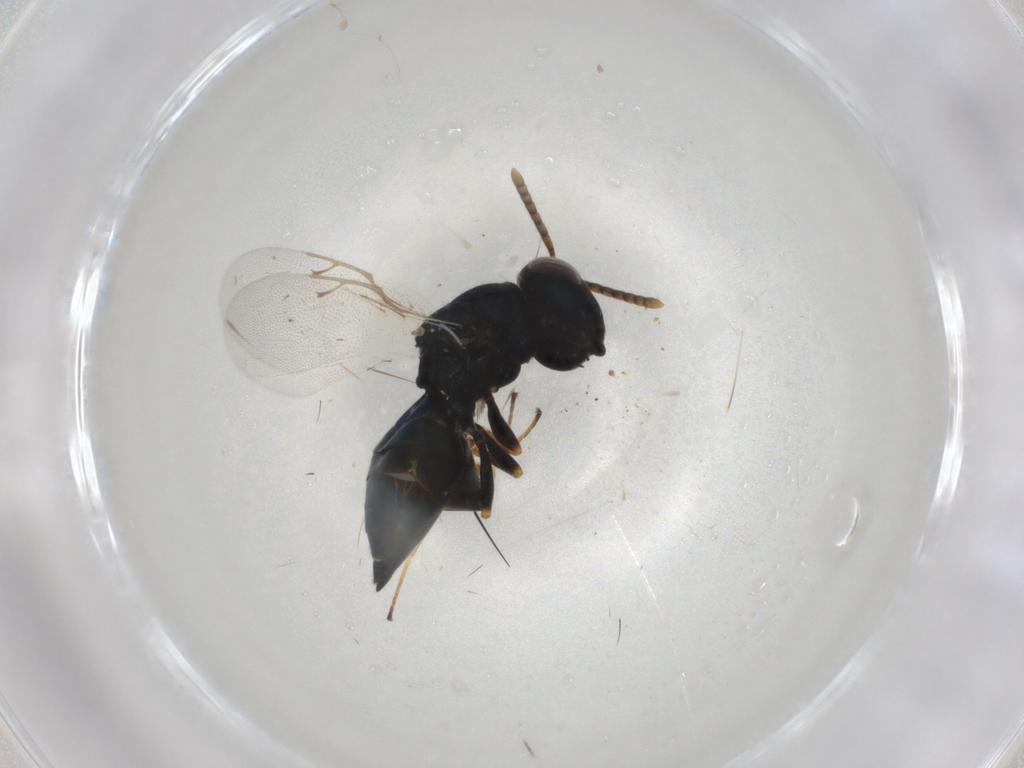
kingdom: Animalia
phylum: Arthropoda
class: Insecta
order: Hymenoptera
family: Pteromalidae
